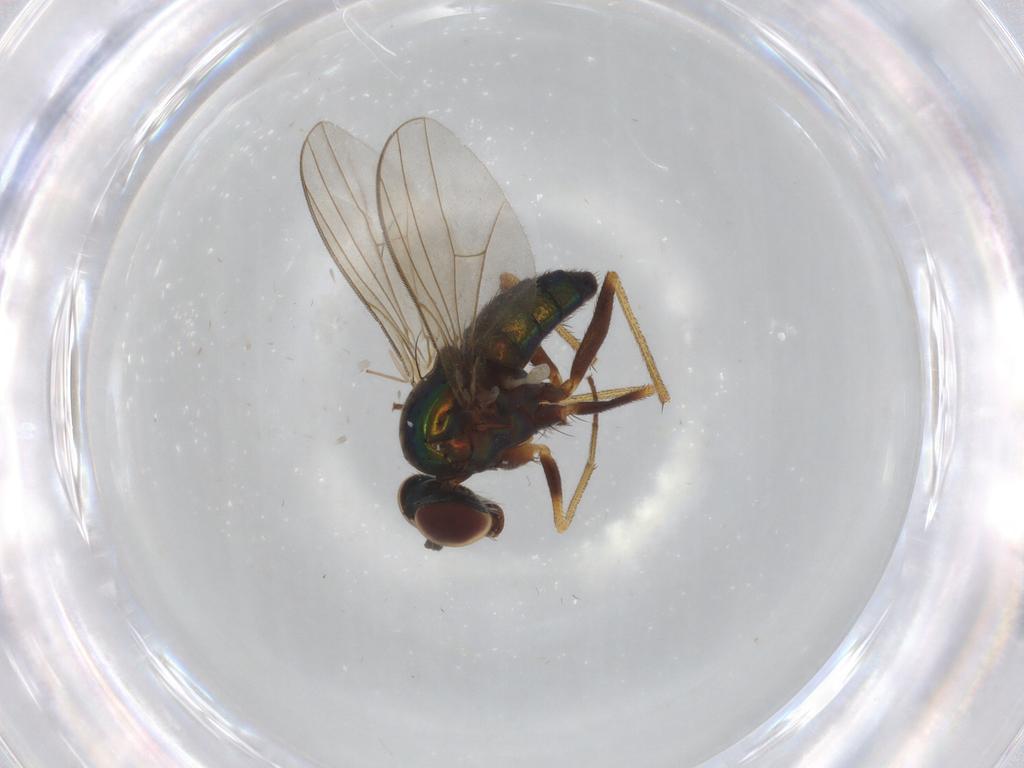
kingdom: Animalia
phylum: Arthropoda
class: Insecta
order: Diptera
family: Dolichopodidae
